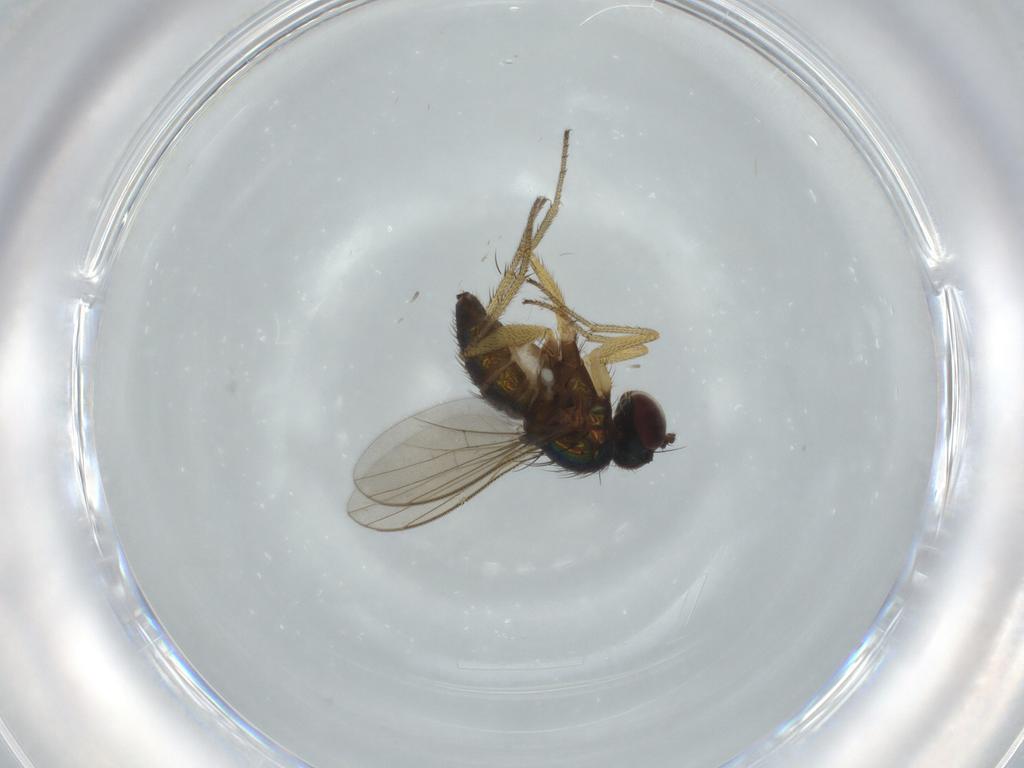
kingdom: Animalia
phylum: Arthropoda
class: Insecta
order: Diptera
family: Dolichopodidae
